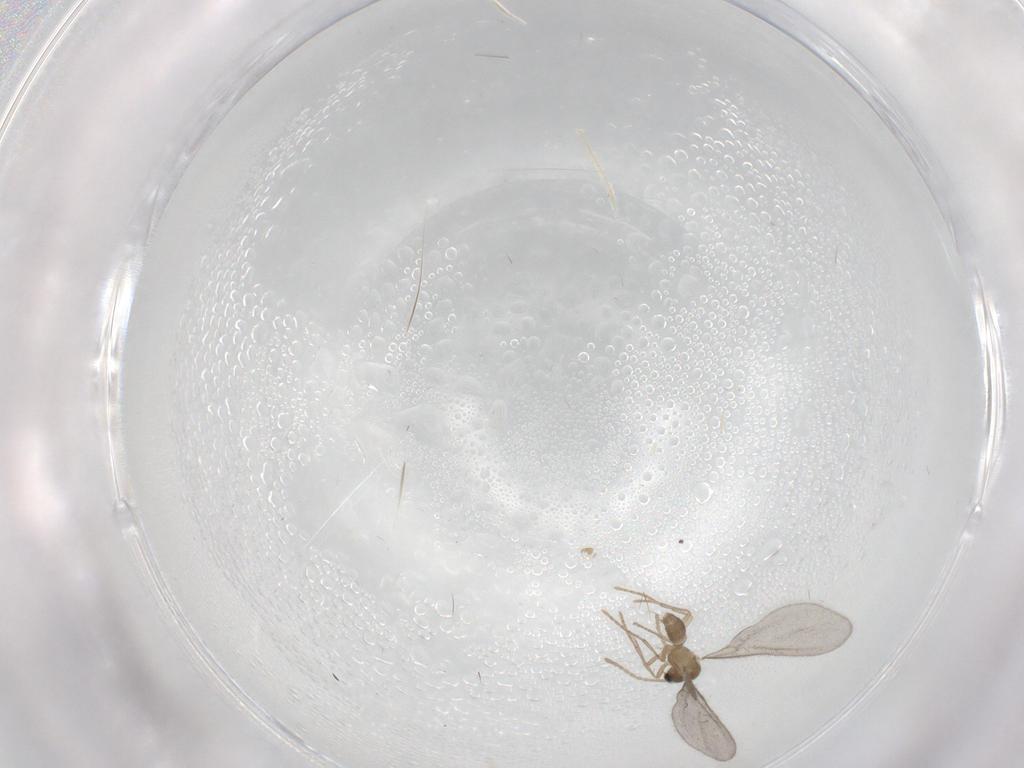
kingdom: Animalia
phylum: Arthropoda
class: Insecta
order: Hymenoptera
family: Formicidae
